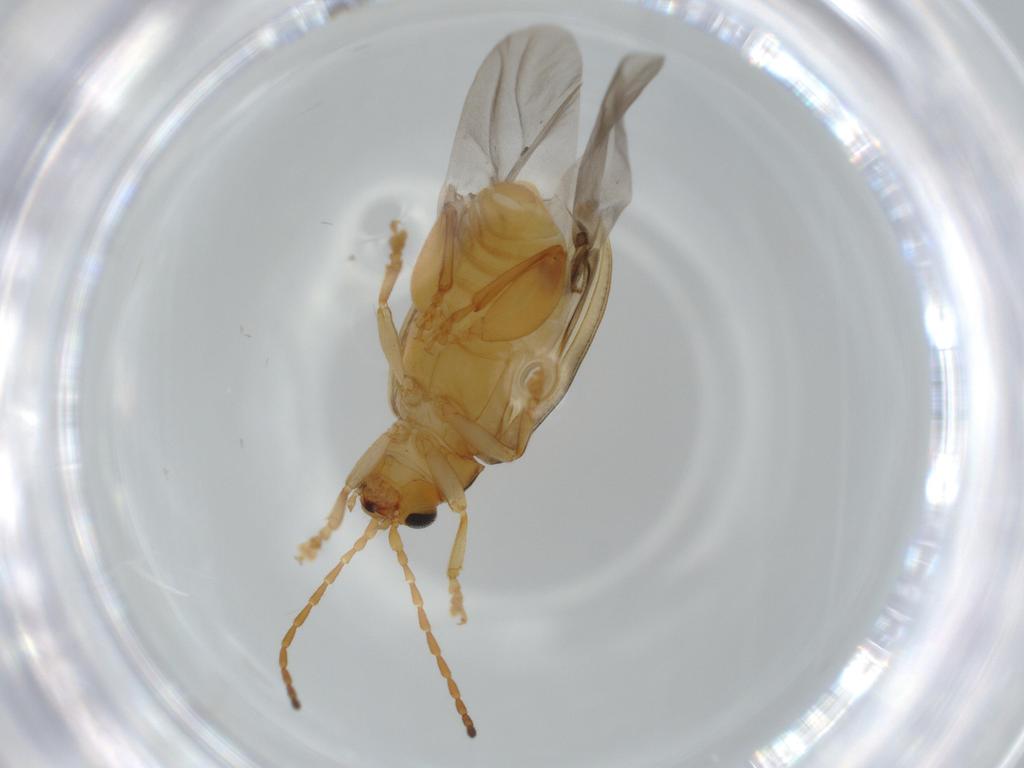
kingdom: Animalia
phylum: Arthropoda
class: Insecta
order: Coleoptera
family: Chrysomelidae
